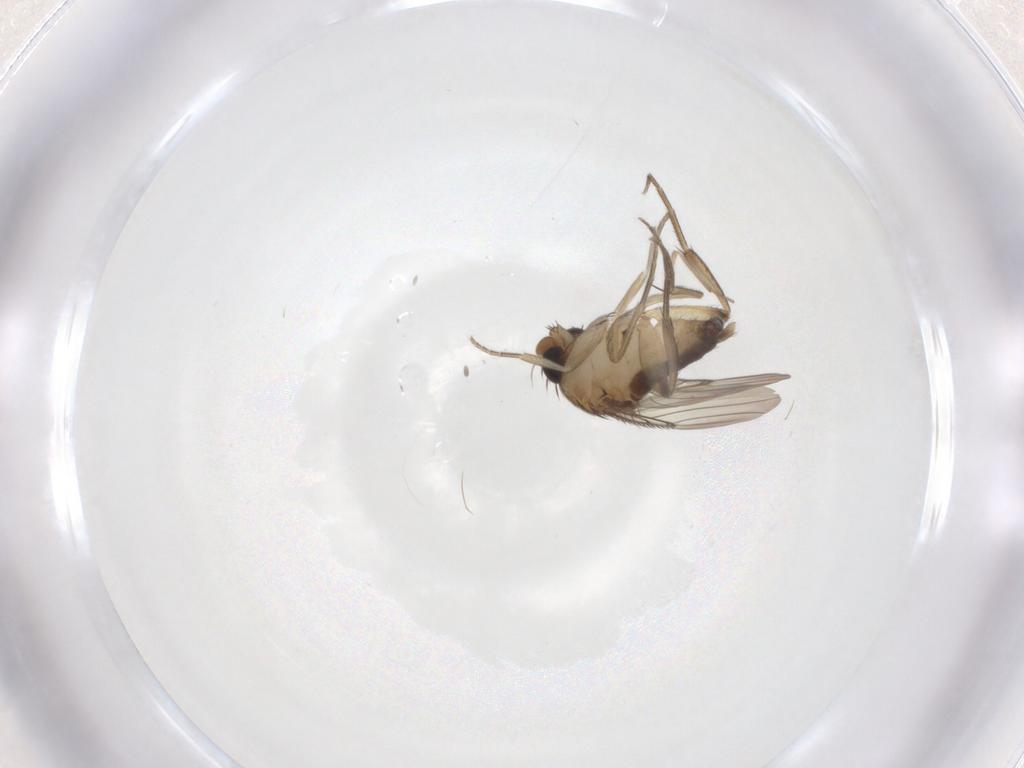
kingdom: Animalia
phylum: Arthropoda
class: Insecta
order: Diptera
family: Phoridae
